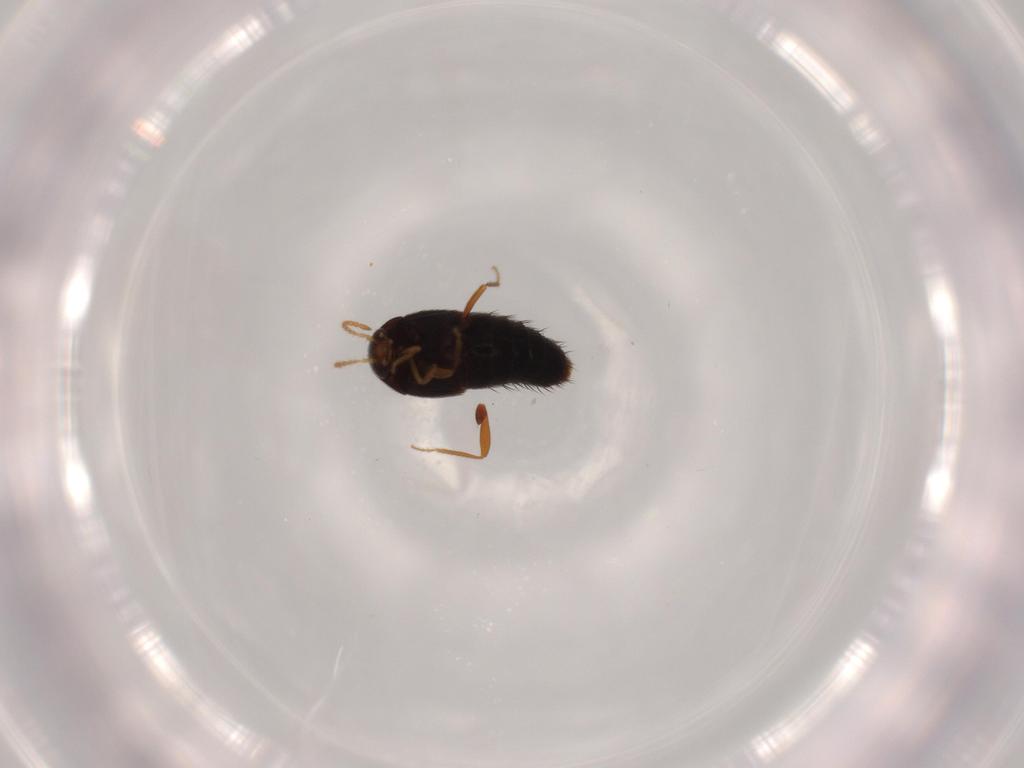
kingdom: Animalia
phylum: Arthropoda
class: Insecta
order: Coleoptera
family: Staphylinidae
